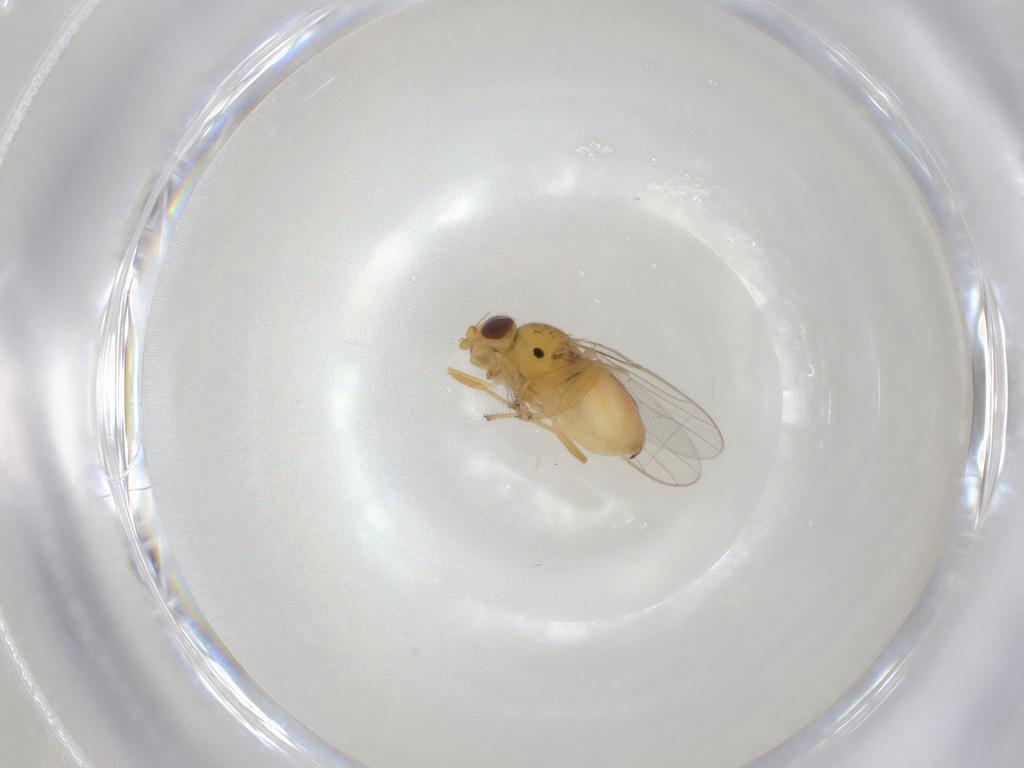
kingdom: Animalia
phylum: Arthropoda
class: Insecta
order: Diptera
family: Chloropidae
